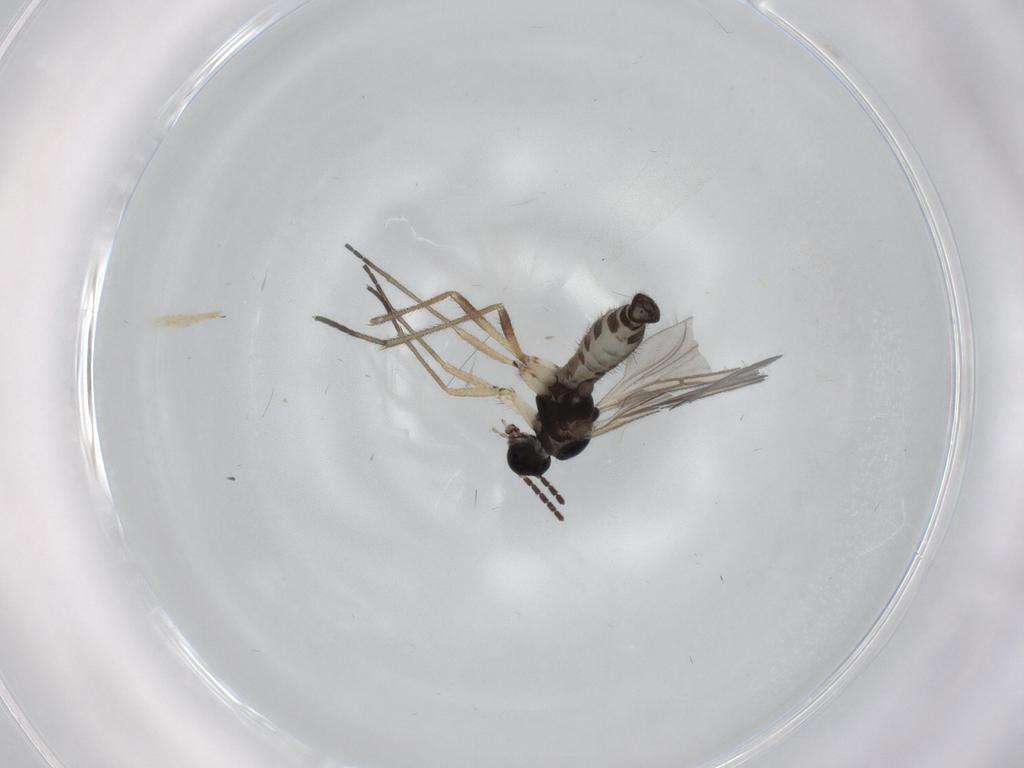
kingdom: Animalia
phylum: Arthropoda
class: Insecta
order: Diptera
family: Sciaridae
